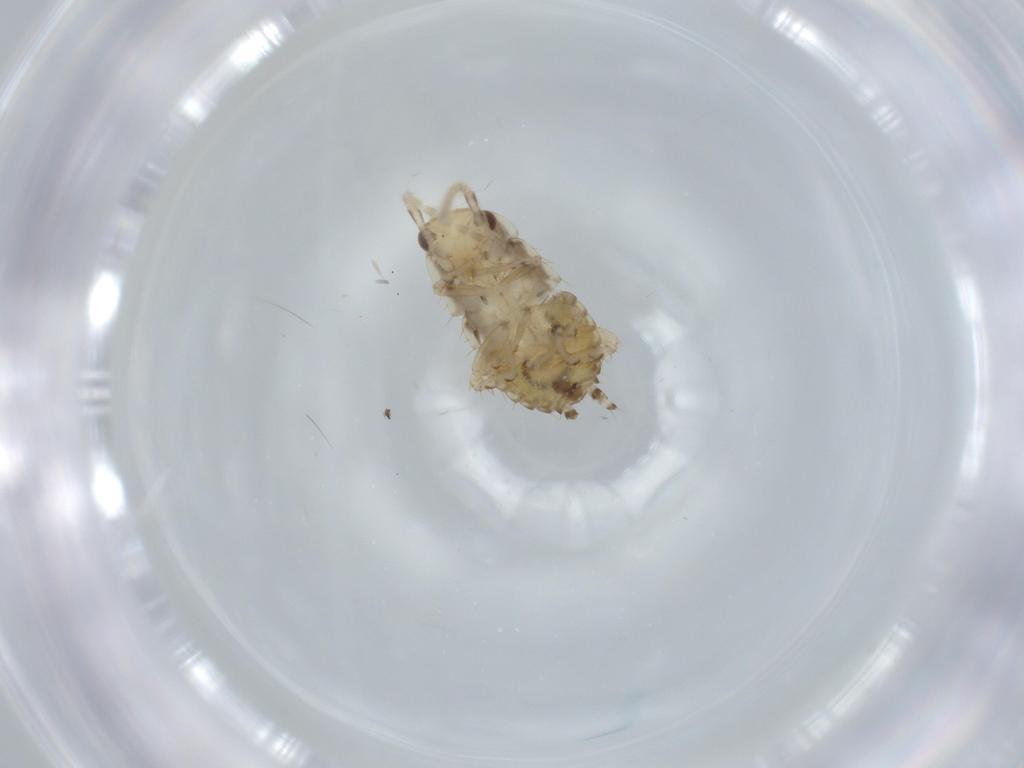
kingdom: Animalia
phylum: Arthropoda
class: Insecta
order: Blattodea
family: Ectobiidae
